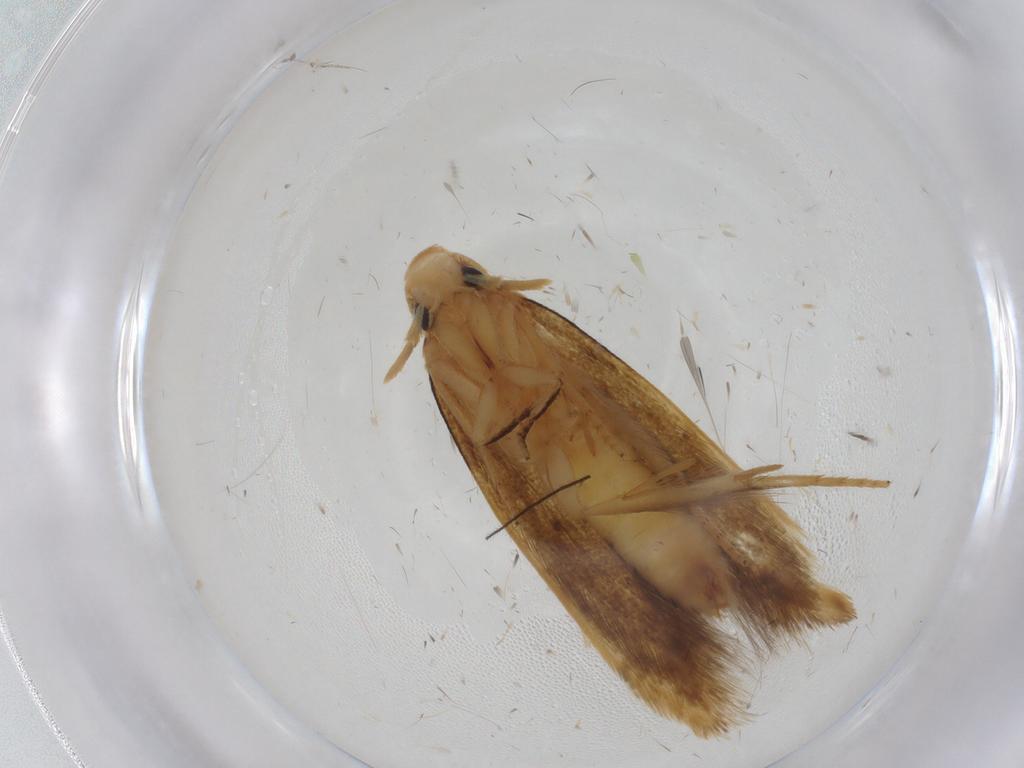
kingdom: Animalia
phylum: Arthropoda
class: Insecta
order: Lepidoptera
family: Tineidae
